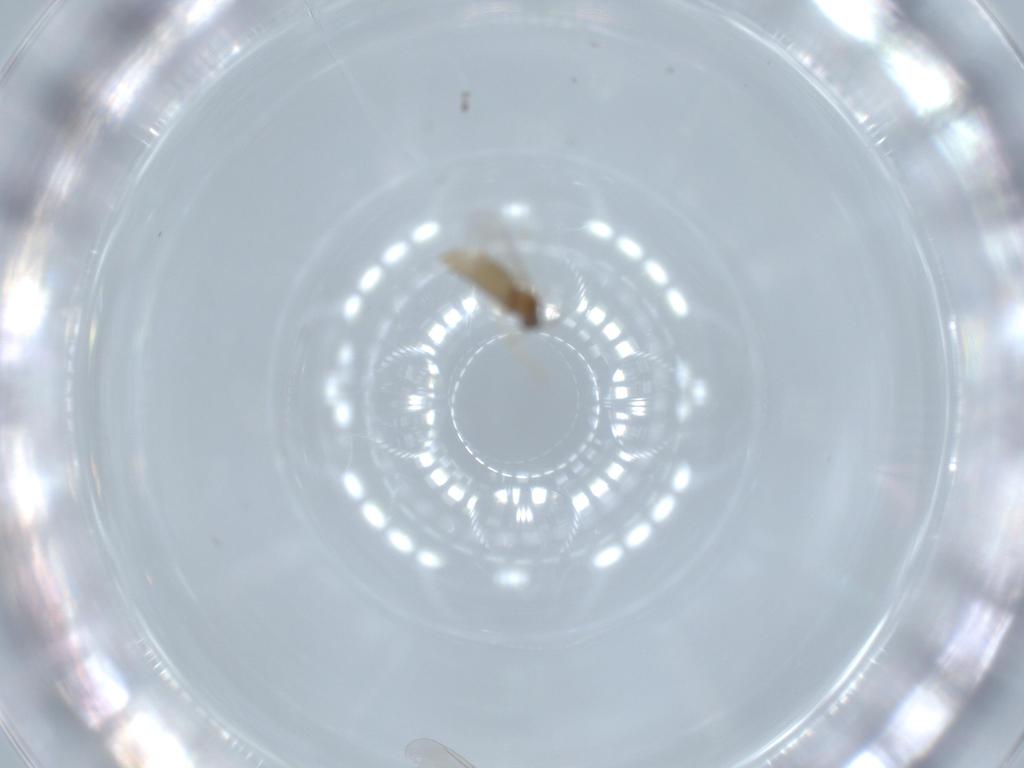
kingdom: Animalia
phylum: Arthropoda
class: Insecta
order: Diptera
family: Cecidomyiidae
